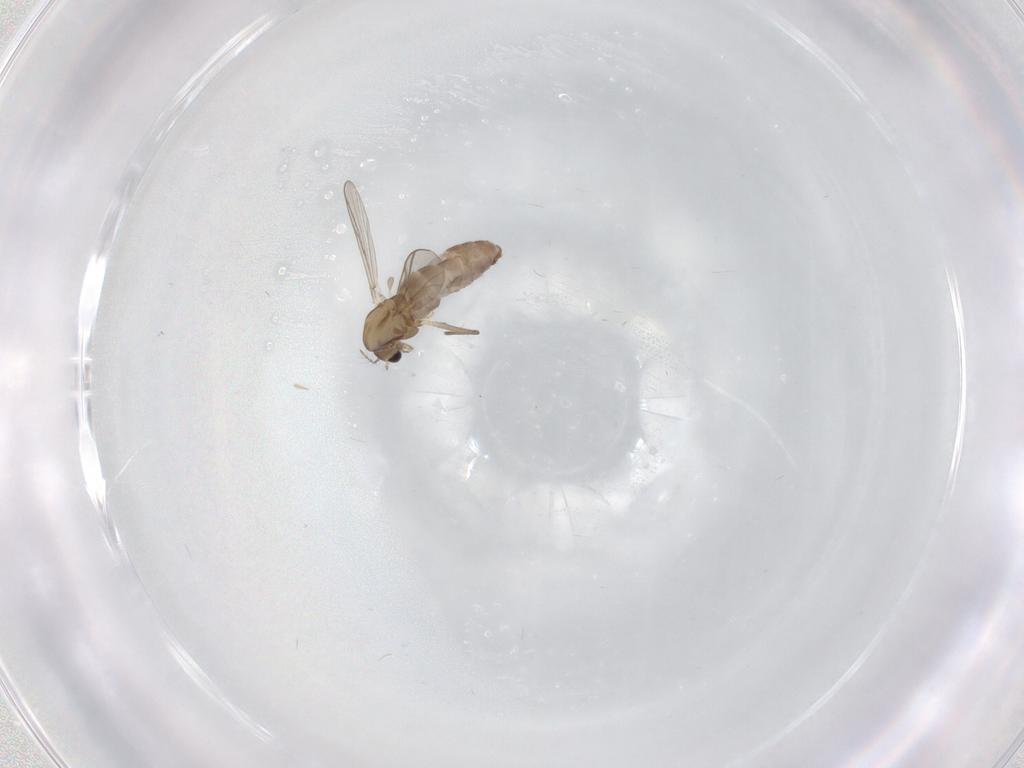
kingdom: Animalia
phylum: Arthropoda
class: Insecta
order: Diptera
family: Chironomidae
